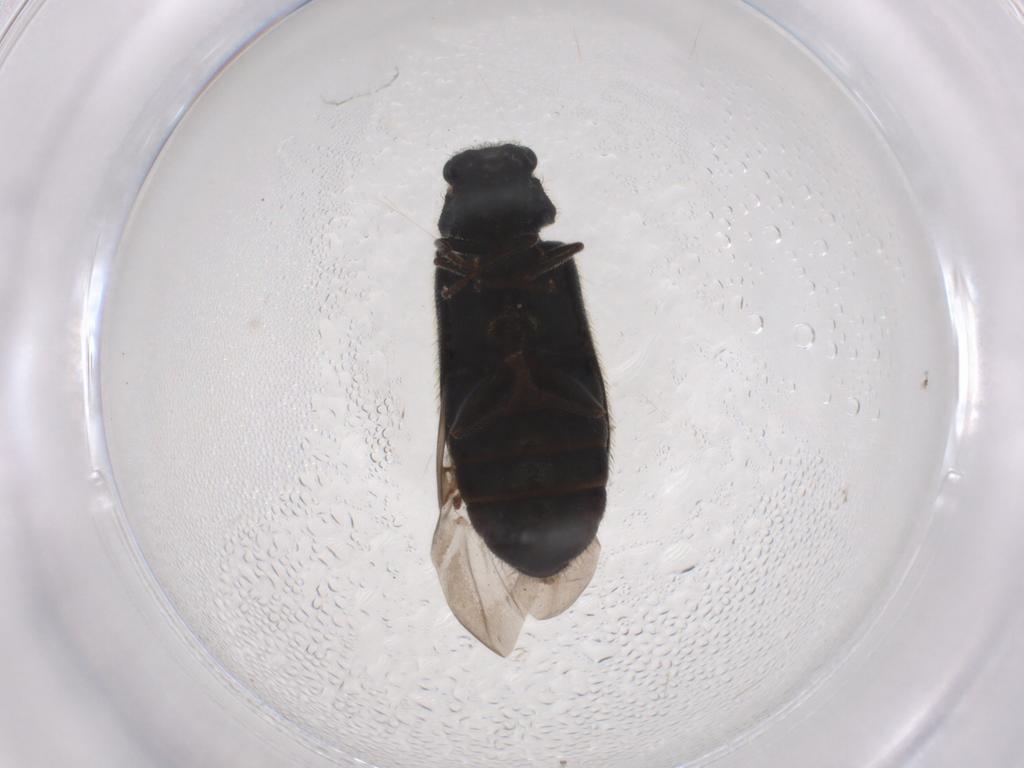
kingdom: Animalia
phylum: Arthropoda
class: Insecta
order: Coleoptera
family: Melyridae
